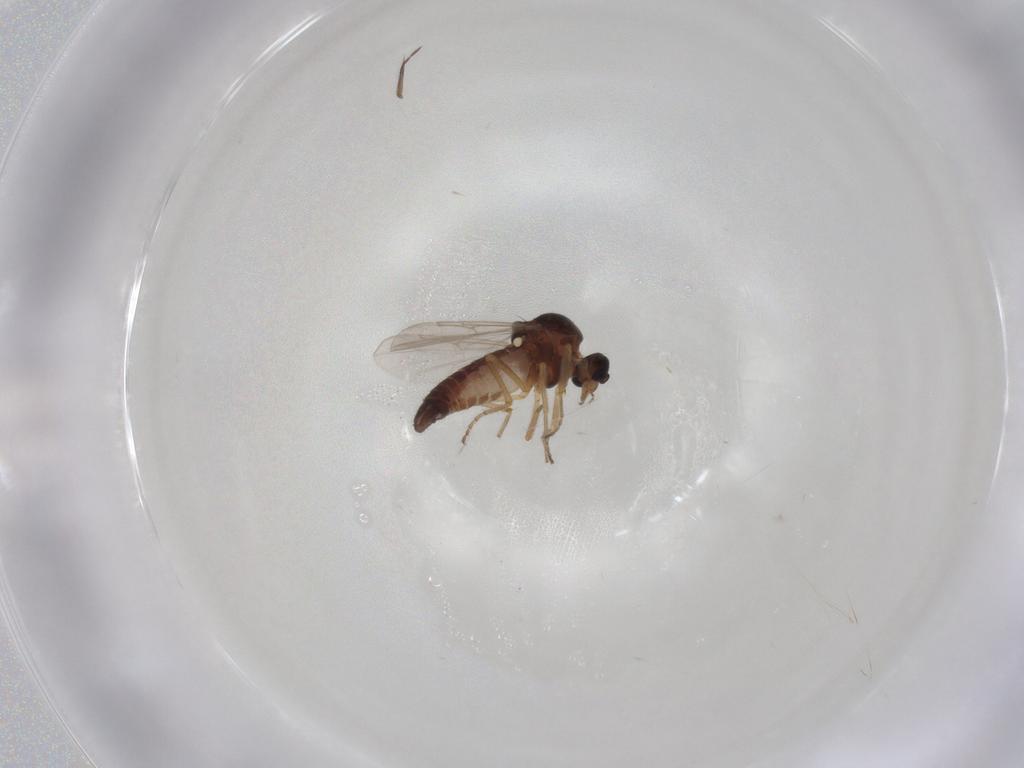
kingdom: Animalia
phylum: Arthropoda
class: Insecta
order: Diptera
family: Ceratopogonidae
